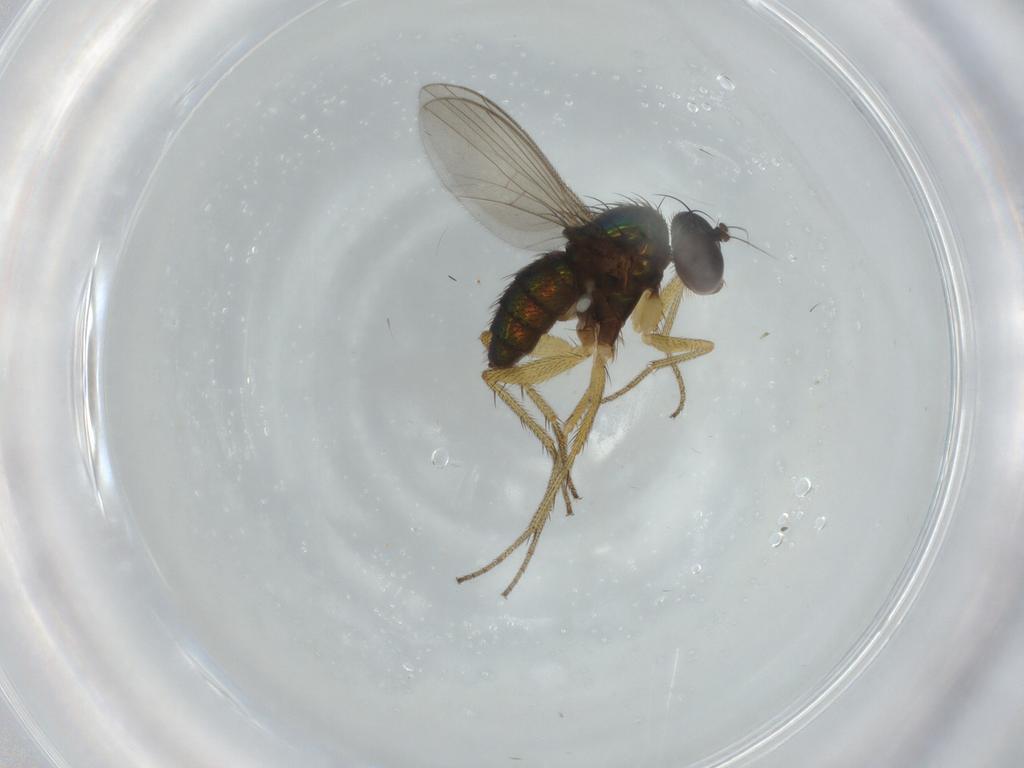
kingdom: Animalia
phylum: Arthropoda
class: Insecta
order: Diptera
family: Dolichopodidae
